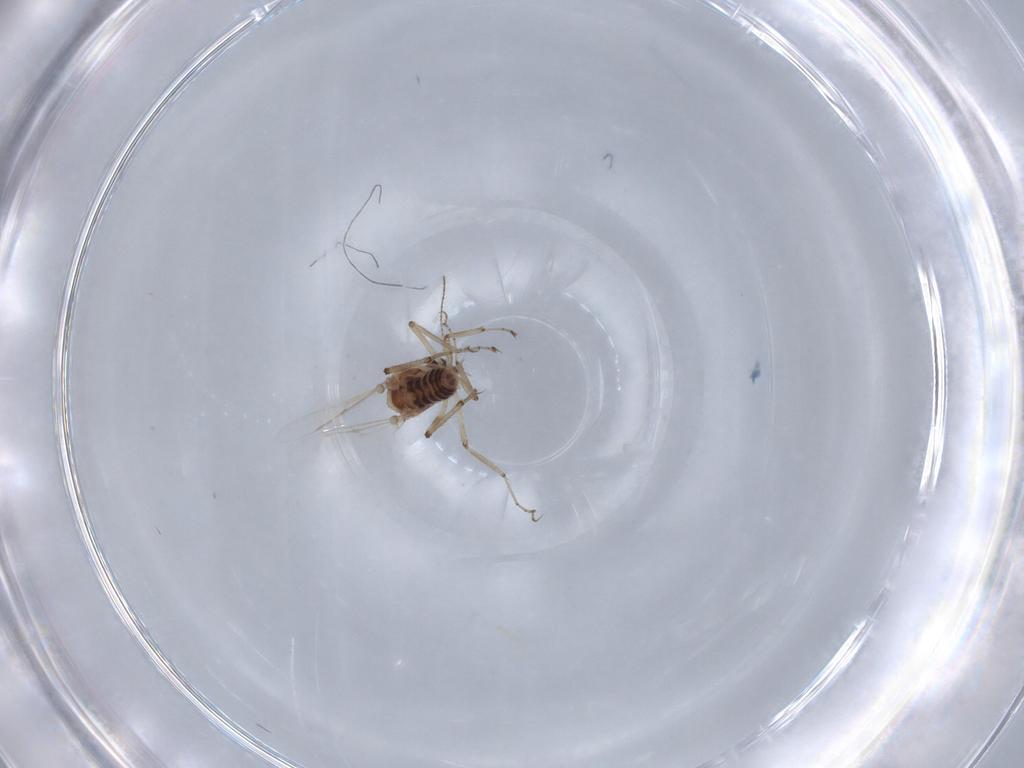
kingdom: Animalia
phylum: Arthropoda
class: Insecta
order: Diptera
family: Ceratopogonidae
